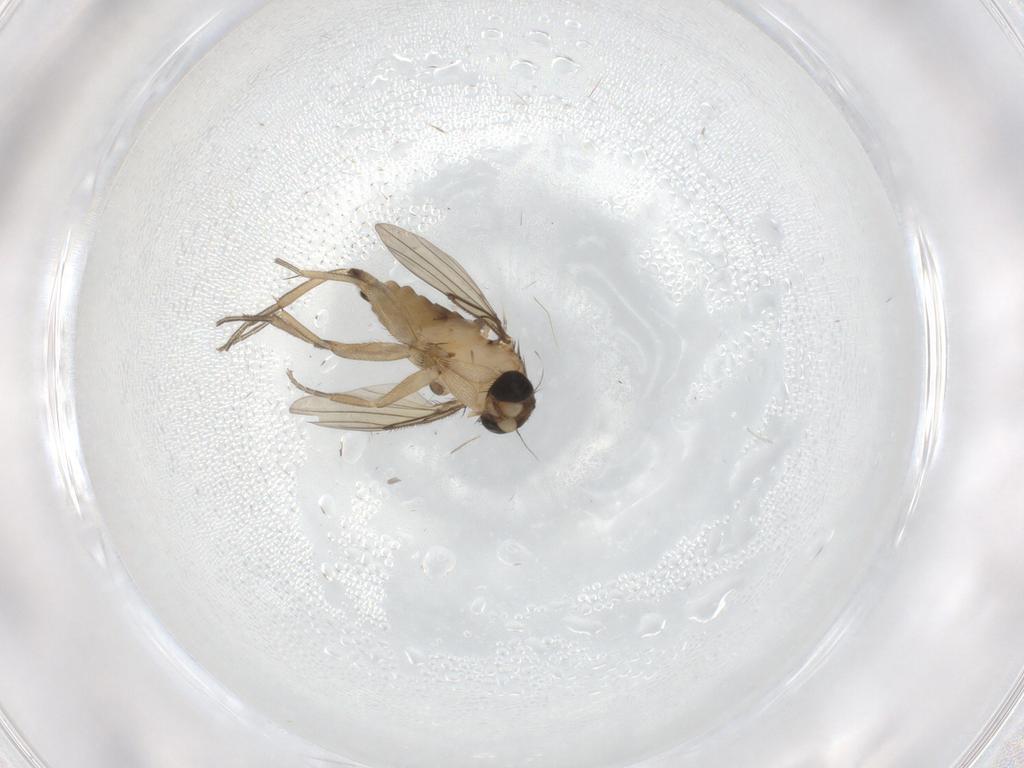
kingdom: Animalia
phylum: Arthropoda
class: Insecta
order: Diptera
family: Chironomidae
